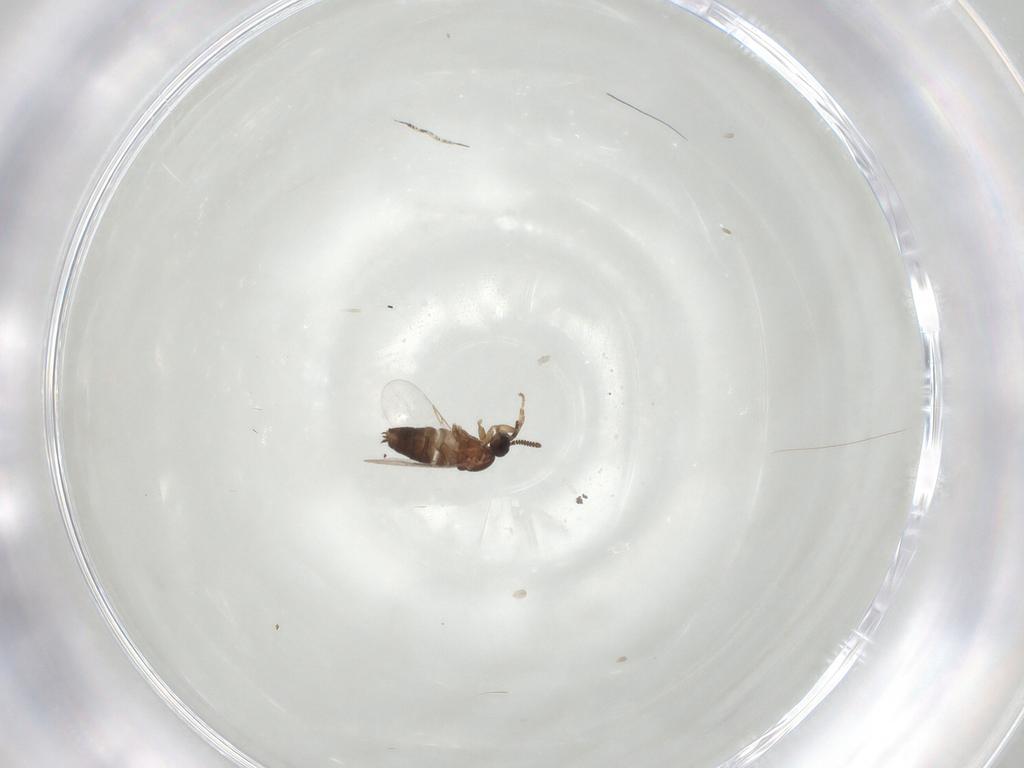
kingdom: Animalia
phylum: Arthropoda
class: Insecta
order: Diptera
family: Scatopsidae
